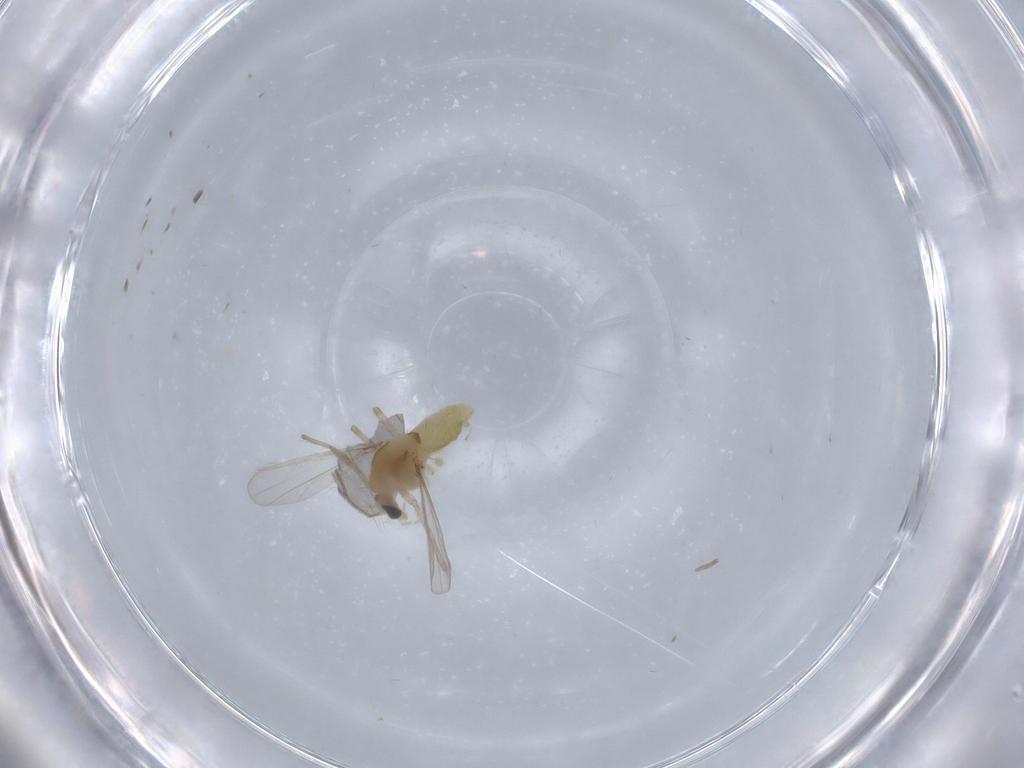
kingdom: Animalia
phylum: Arthropoda
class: Insecta
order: Diptera
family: Chironomidae
